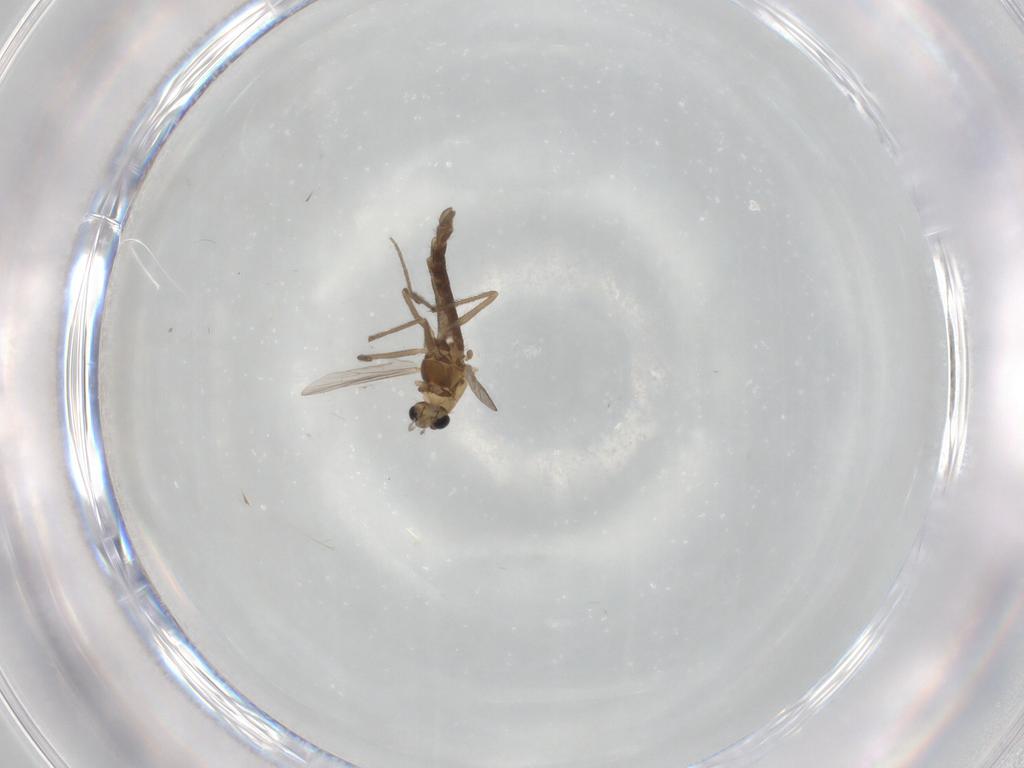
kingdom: Animalia
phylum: Arthropoda
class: Insecta
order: Diptera
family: Chironomidae
